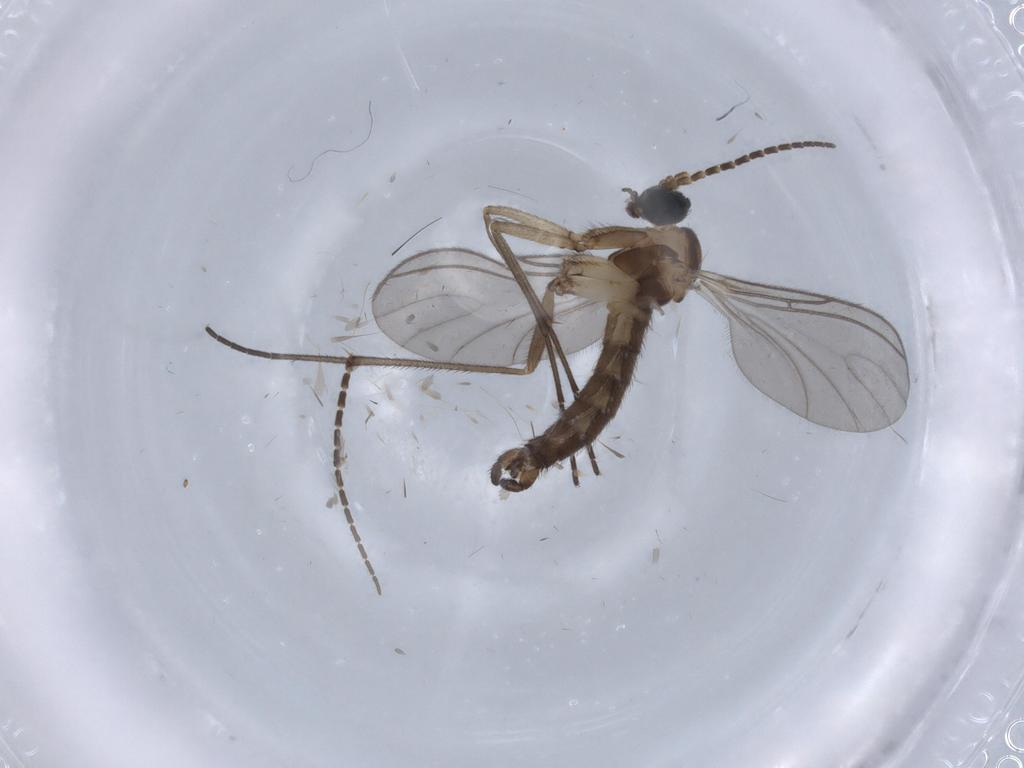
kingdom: Animalia
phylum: Arthropoda
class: Insecta
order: Diptera
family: Sciaridae
